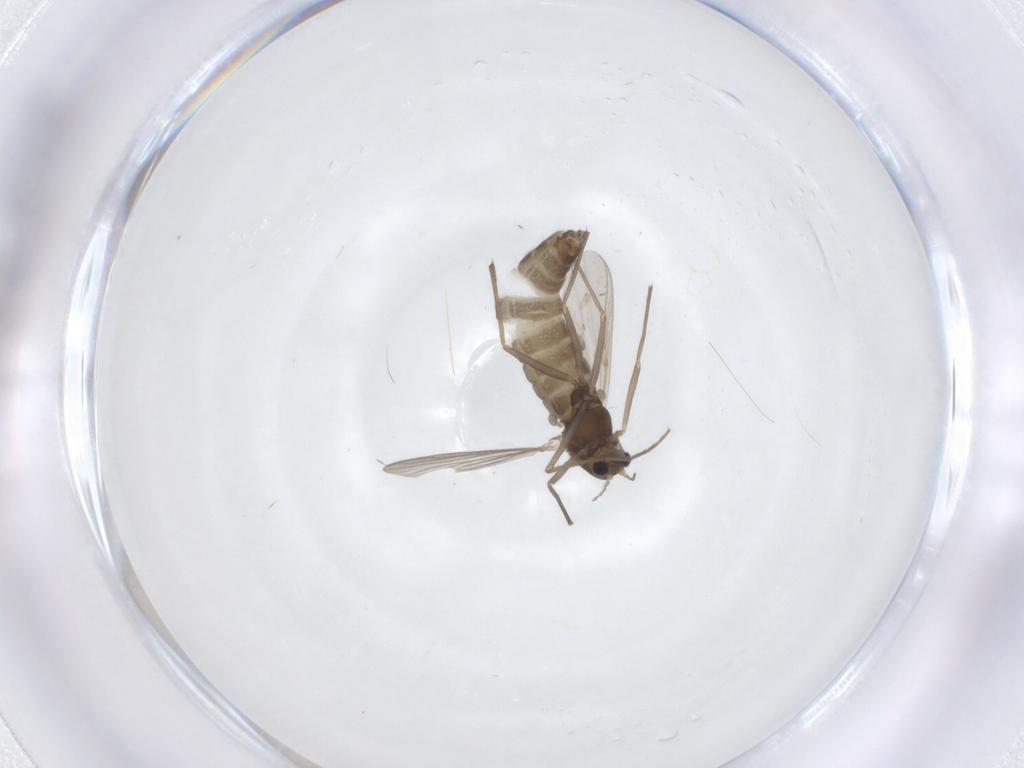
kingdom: Animalia
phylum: Arthropoda
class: Insecta
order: Diptera
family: Chironomidae
